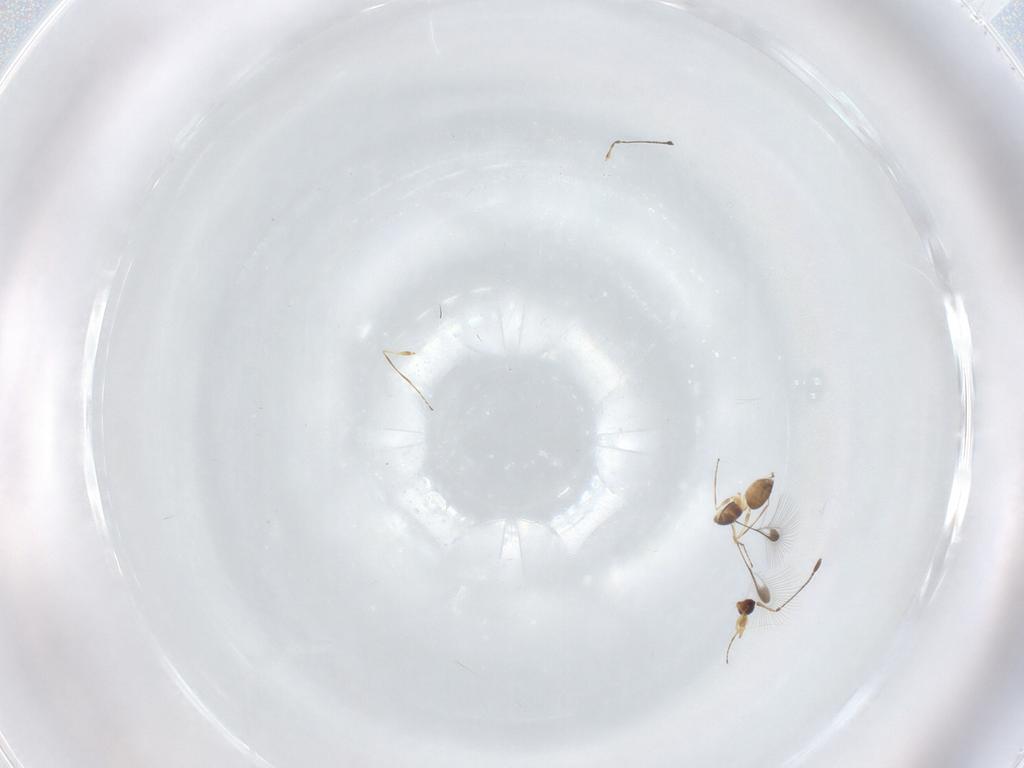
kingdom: Animalia
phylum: Arthropoda
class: Insecta
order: Hymenoptera
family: Mymaridae
